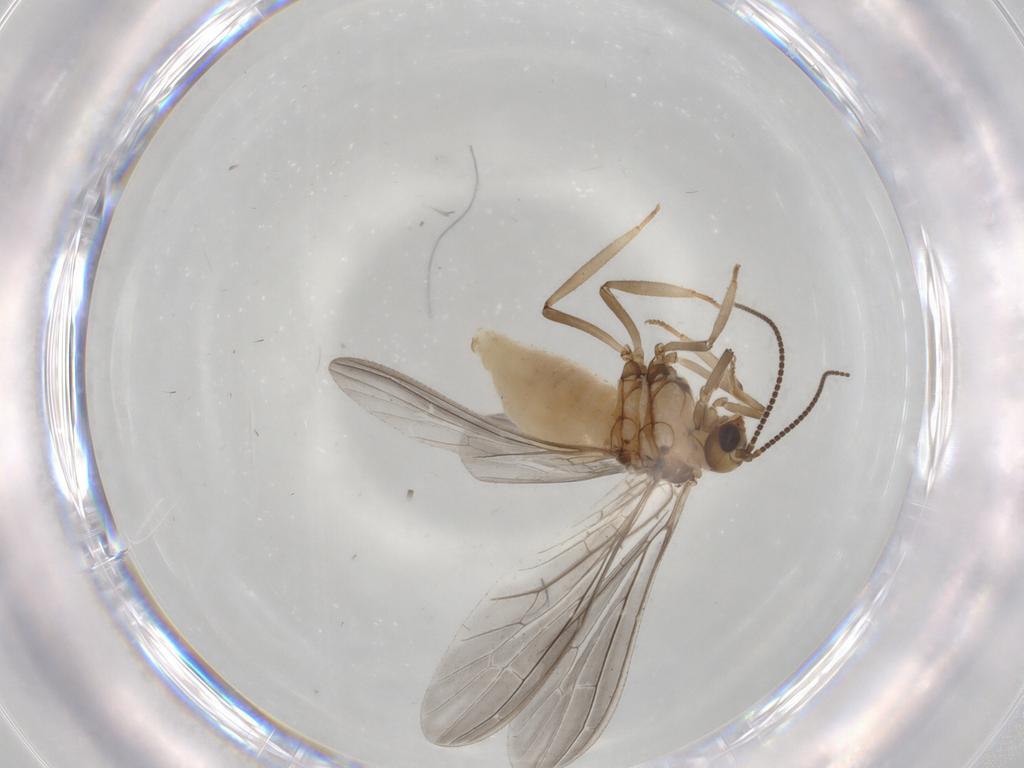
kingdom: Animalia
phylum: Arthropoda
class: Insecta
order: Neuroptera
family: Coniopterygidae
